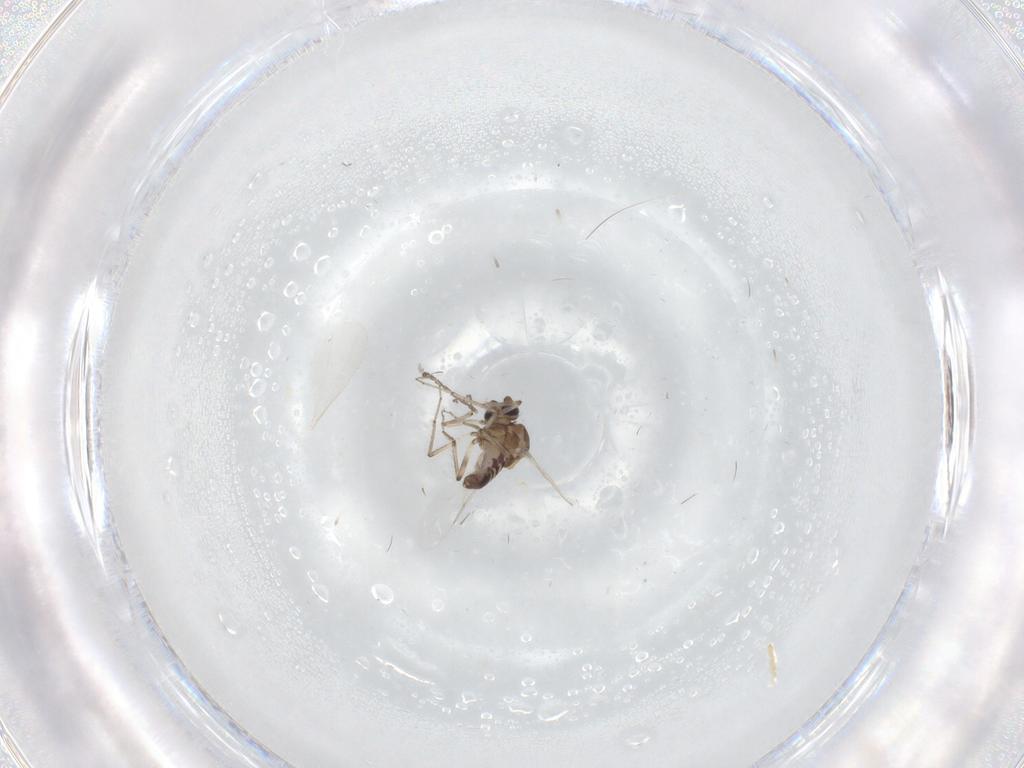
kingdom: Animalia
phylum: Arthropoda
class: Insecta
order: Diptera
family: Ceratopogonidae
